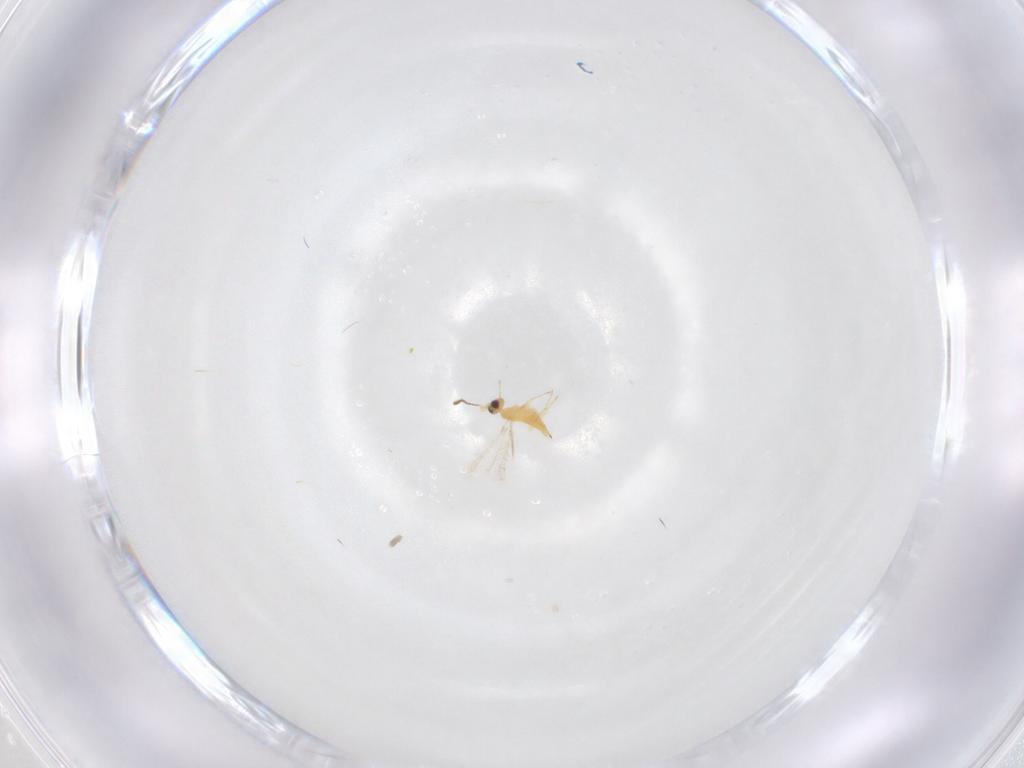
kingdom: Animalia
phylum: Arthropoda
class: Insecta
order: Hymenoptera
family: Mymaridae
